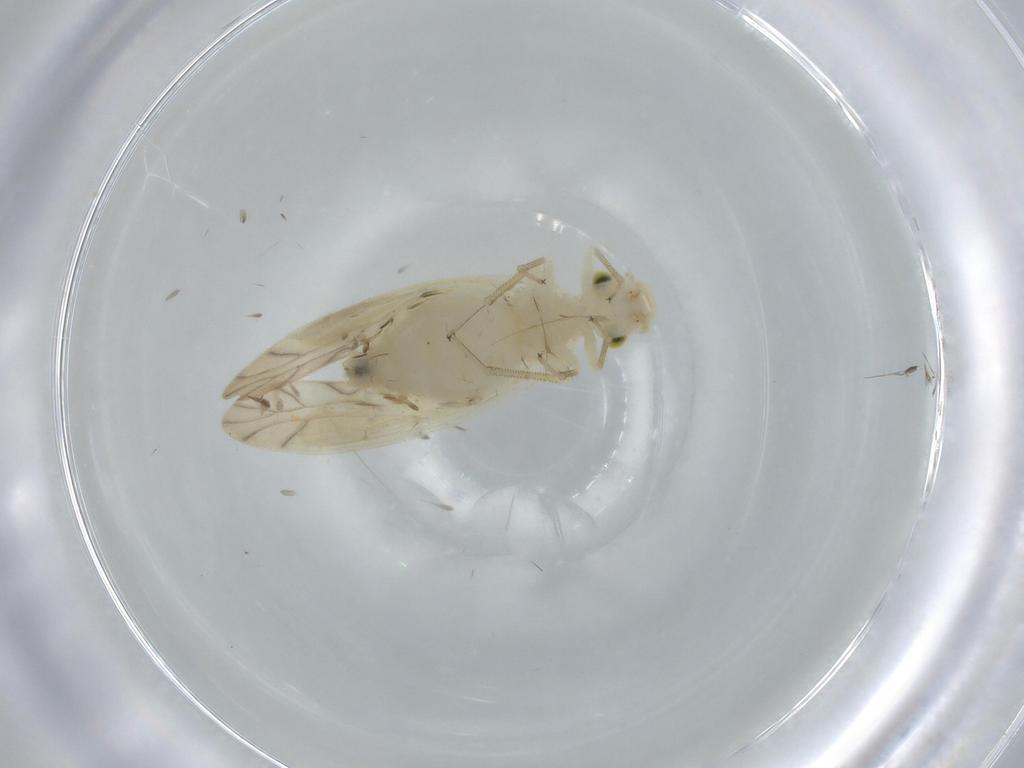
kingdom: Animalia
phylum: Arthropoda
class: Insecta
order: Psocodea
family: Caeciliusidae
